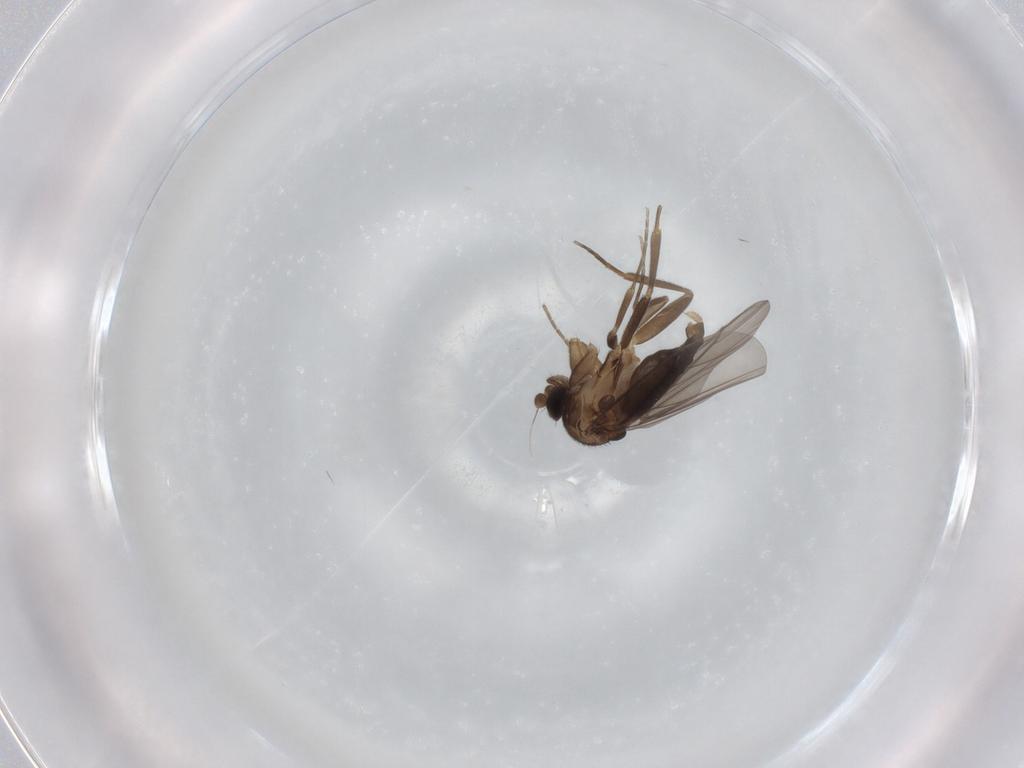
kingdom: Animalia
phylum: Arthropoda
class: Insecta
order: Diptera
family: Phoridae
